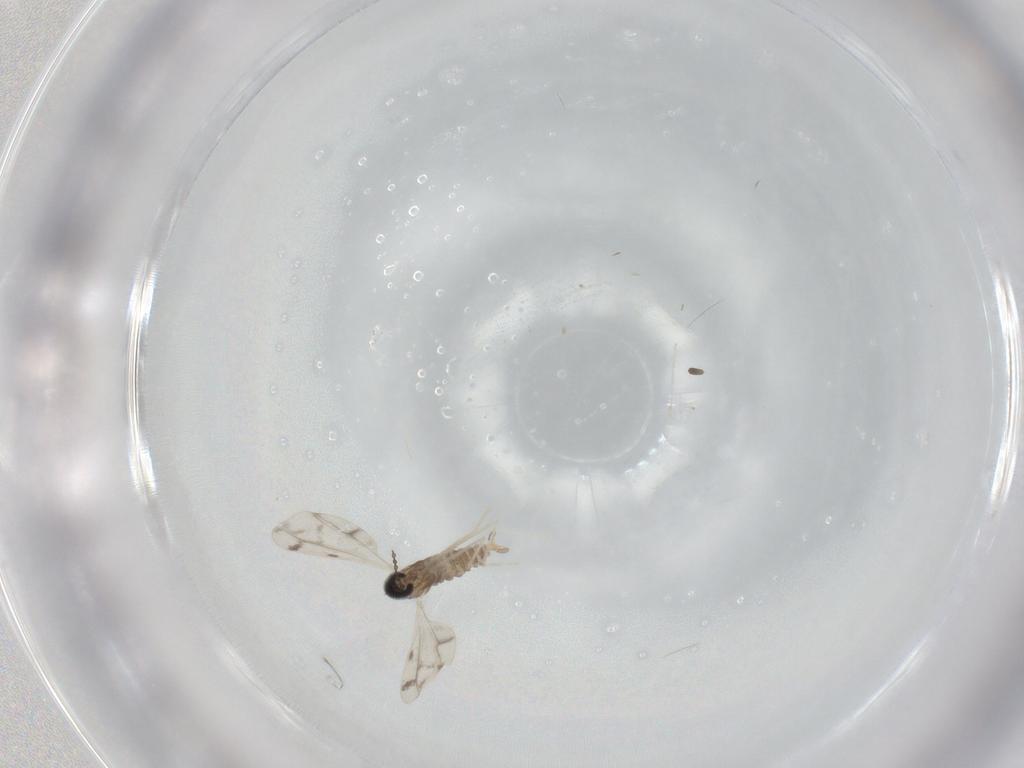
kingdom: Animalia
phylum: Arthropoda
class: Insecta
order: Diptera
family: Cecidomyiidae
